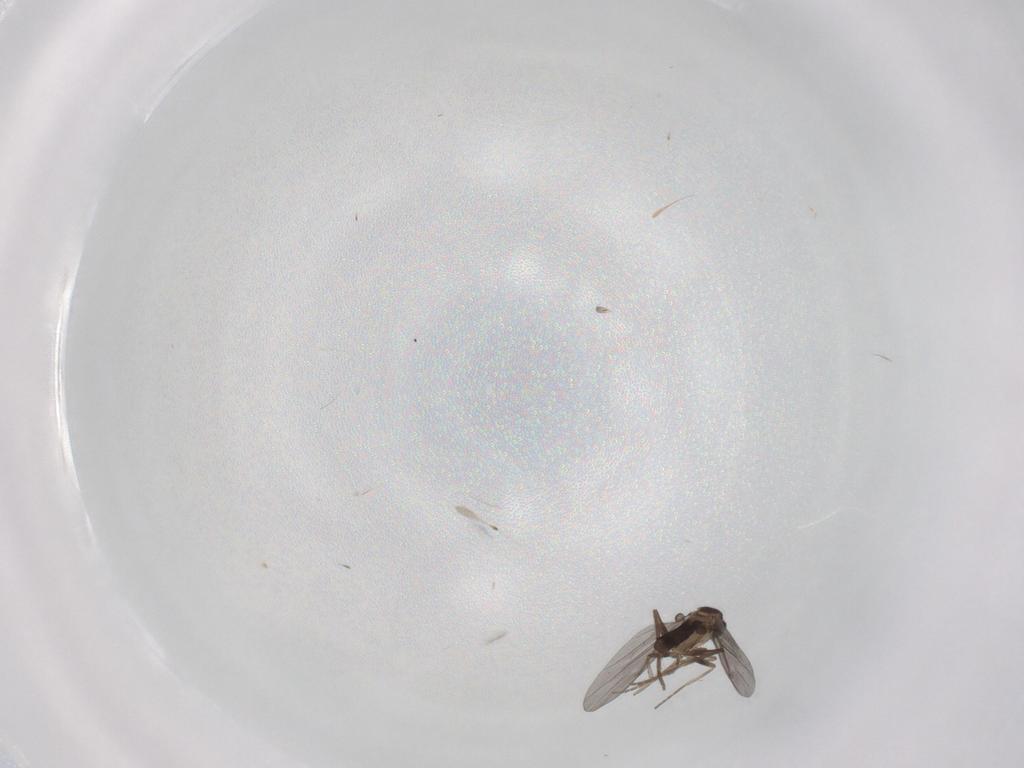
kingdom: Animalia
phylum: Arthropoda
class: Insecta
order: Diptera
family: Phoridae
